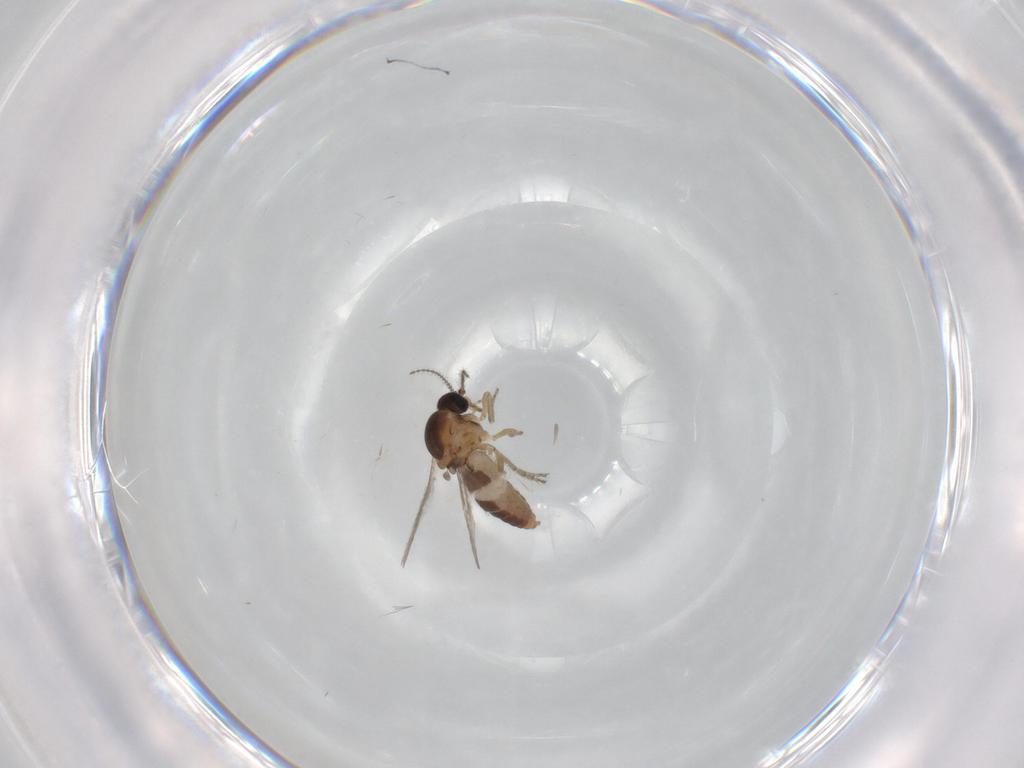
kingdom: Animalia
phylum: Arthropoda
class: Insecta
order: Diptera
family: Ceratopogonidae
